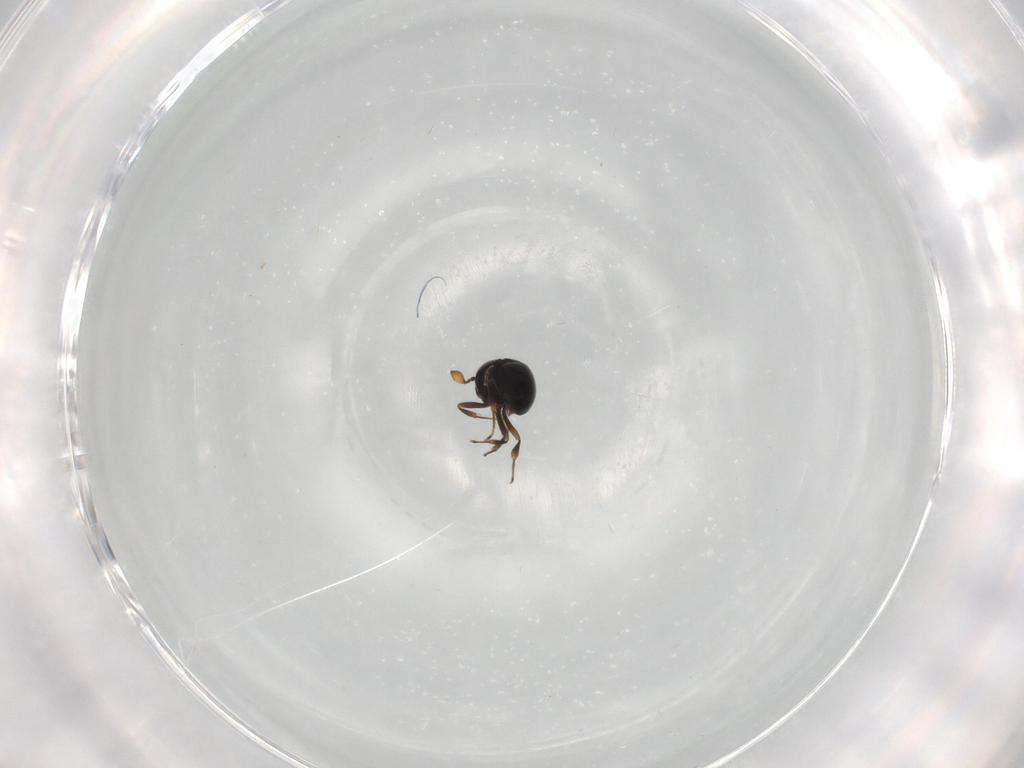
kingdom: Animalia
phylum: Arthropoda
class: Insecta
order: Hymenoptera
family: Scelionidae
